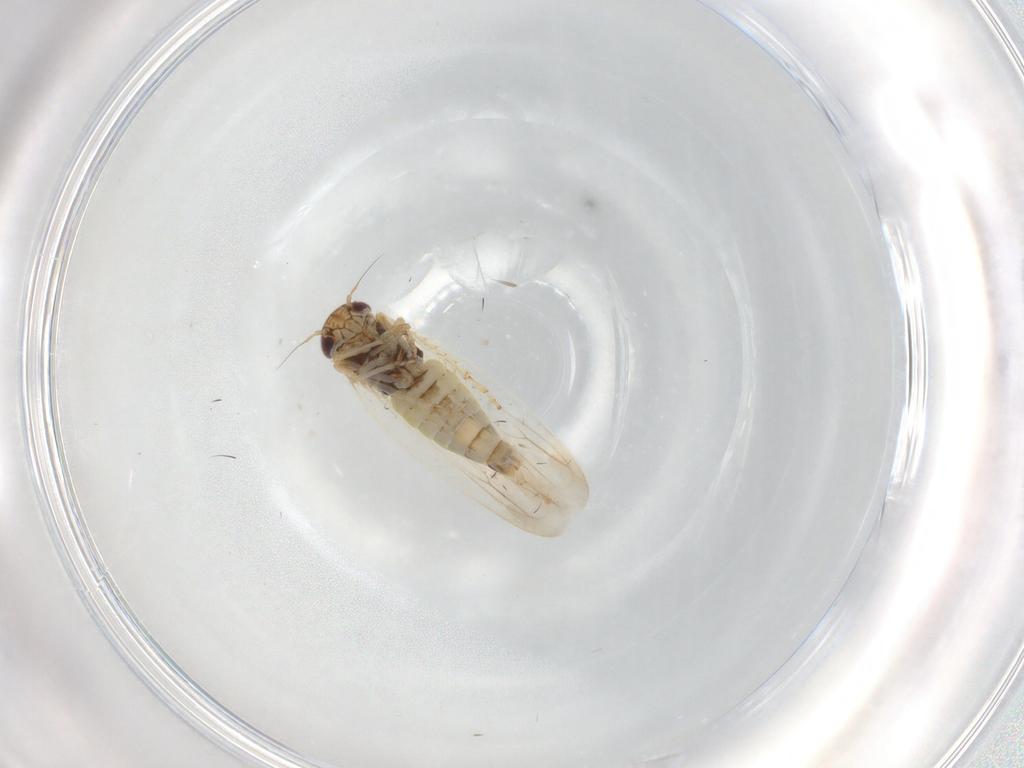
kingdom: Animalia
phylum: Arthropoda
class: Insecta
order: Hemiptera
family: Cicadellidae
